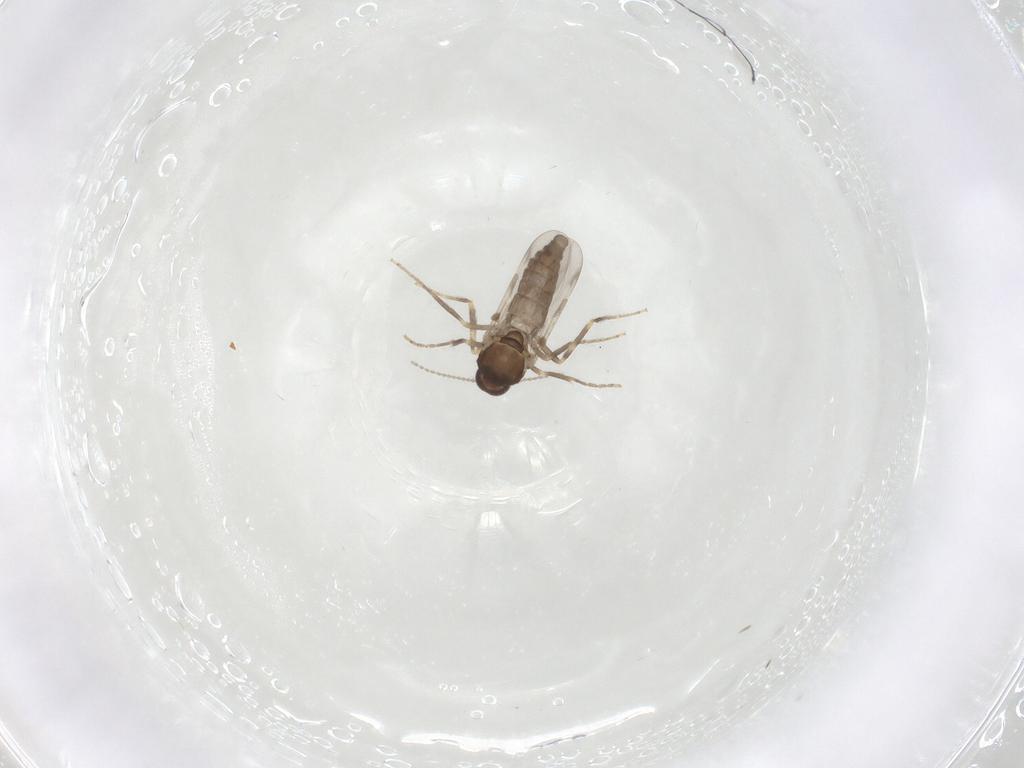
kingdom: Animalia
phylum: Arthropoda
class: Insecta
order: Diptera
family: Ceratopogonidae
